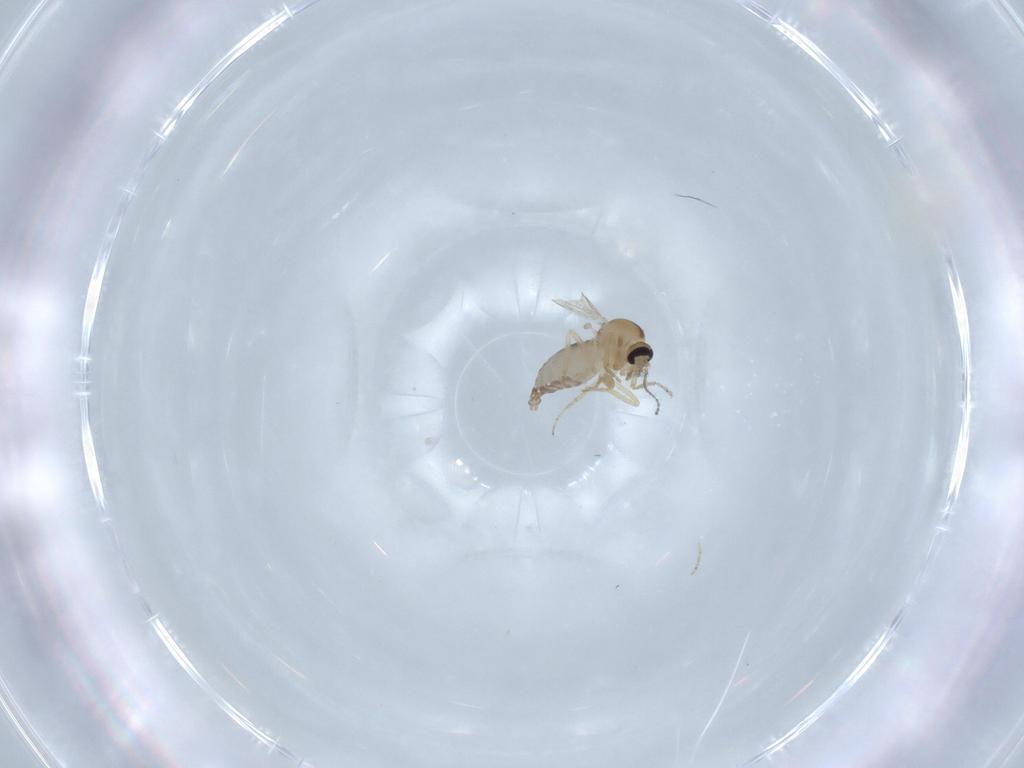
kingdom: Animalia
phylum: Arthropoda
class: Insecta
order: Diptera
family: Ceratopogonidae
